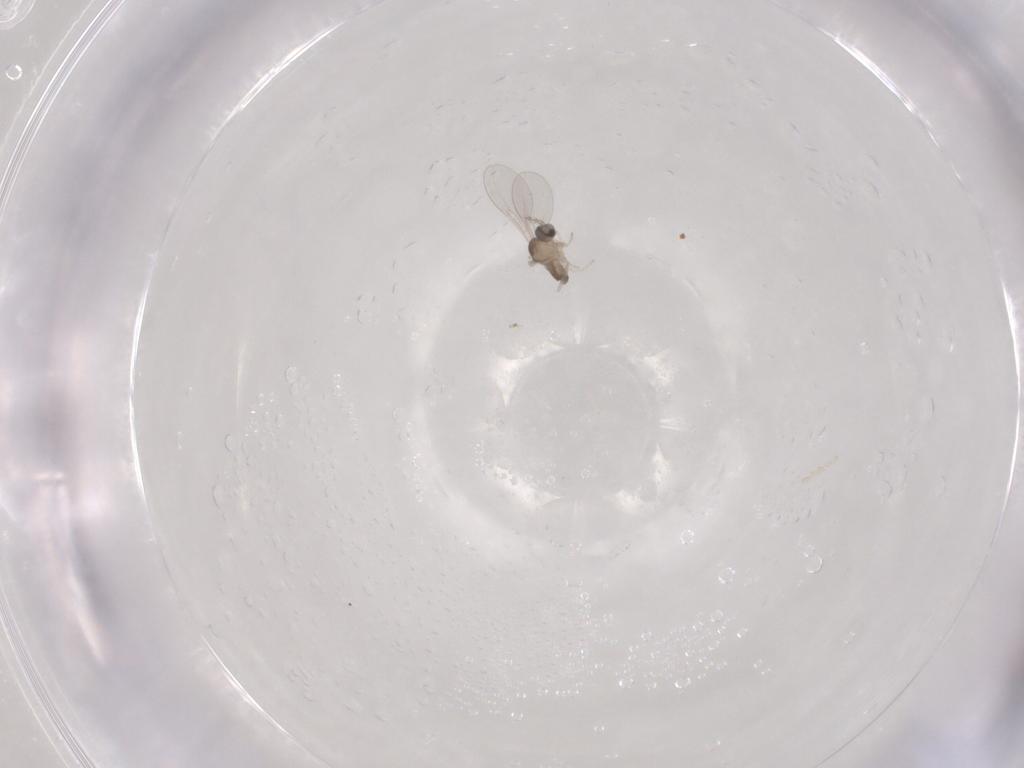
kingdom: Animalia
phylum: Arthropoda
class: Insecta
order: Diptera
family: Cecidomyiidae
